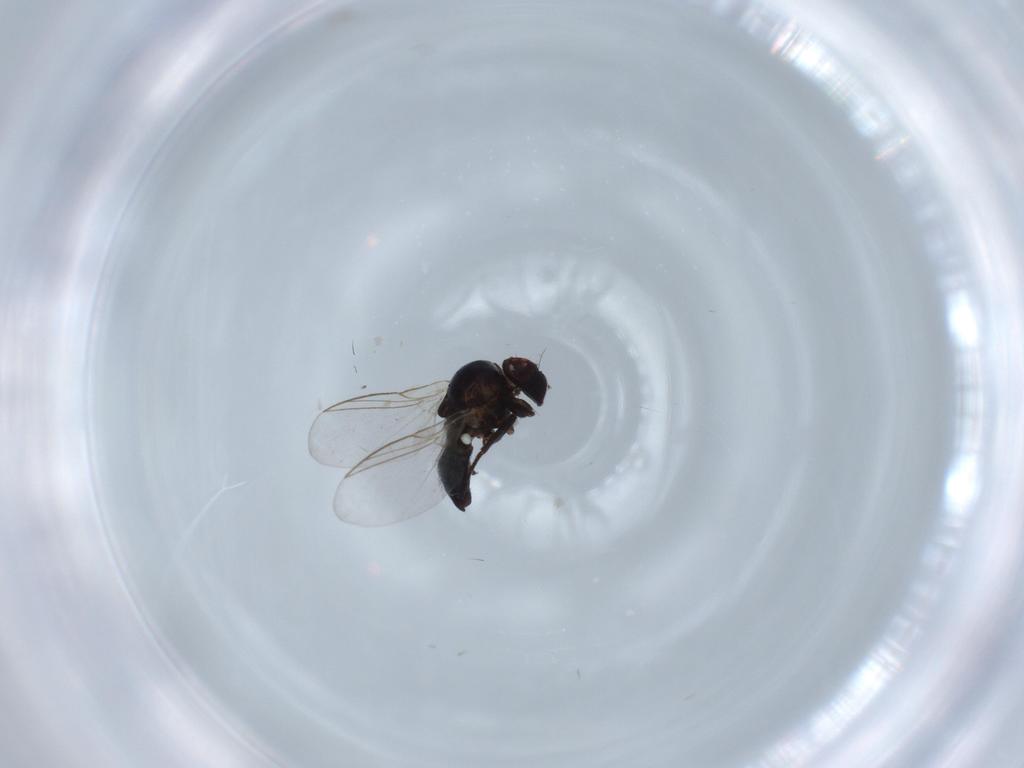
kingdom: Animalia
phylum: Arthropoda
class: Insecta
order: Diptera
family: Agromyzidae
